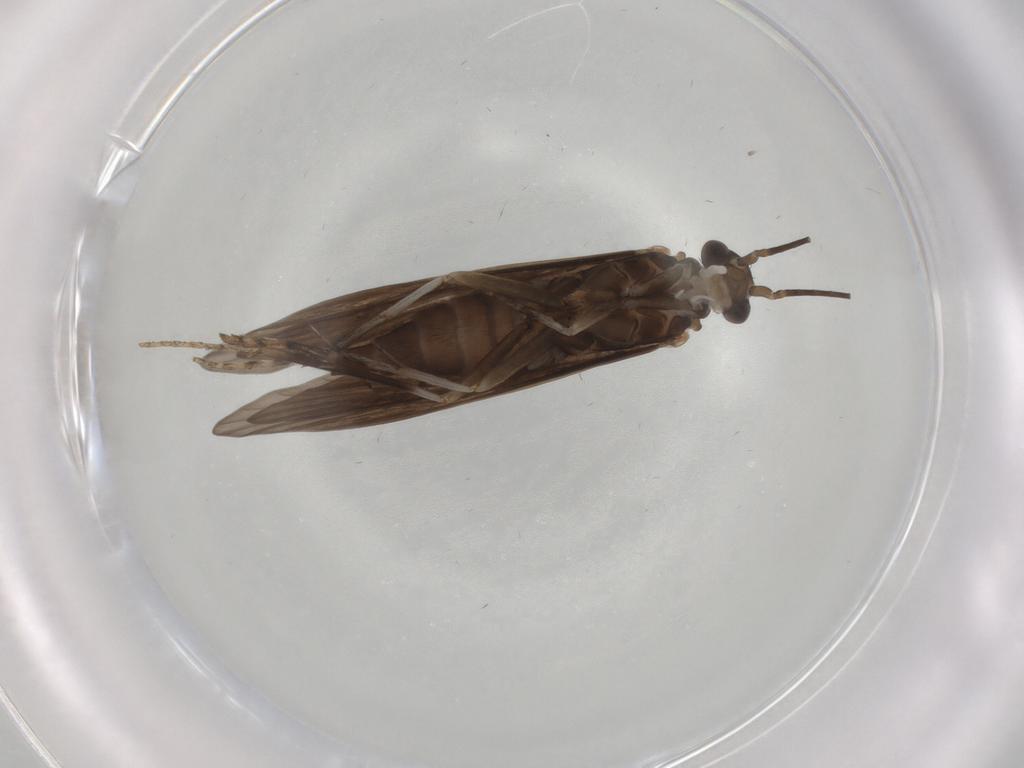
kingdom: Animalia
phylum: Arthropoda
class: Insecta
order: Trichoptera
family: Xiphocentronidae
